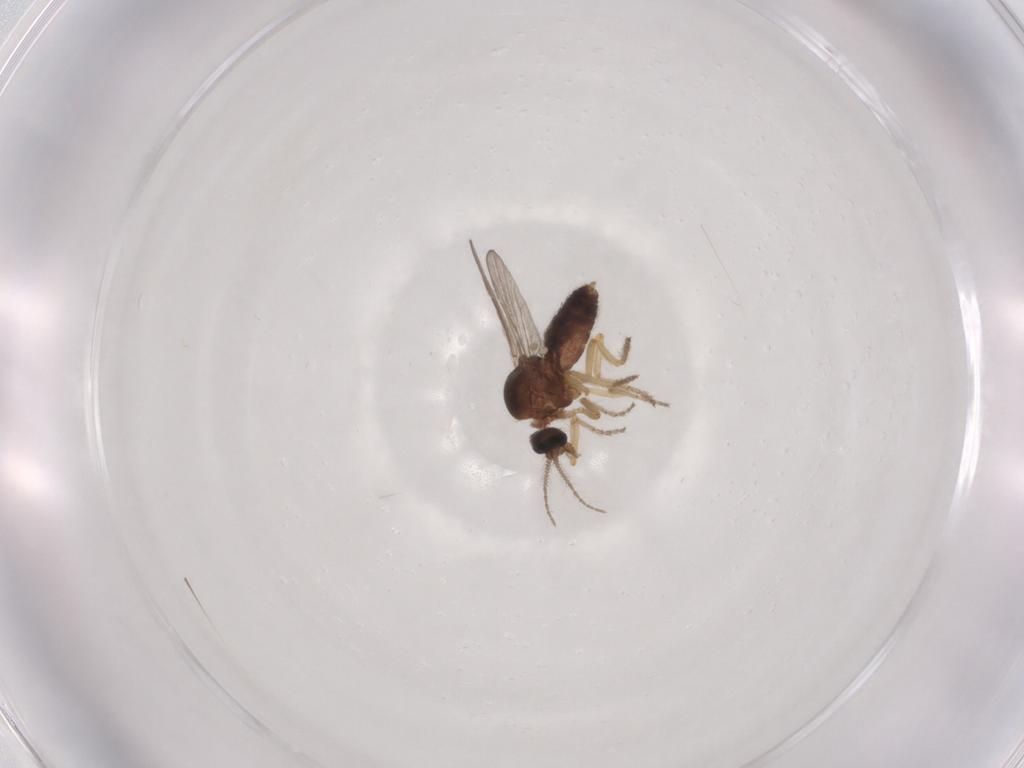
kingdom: Animalia
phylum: Arthropoda
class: Insecta
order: Diptera
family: Ceratopogonidae
